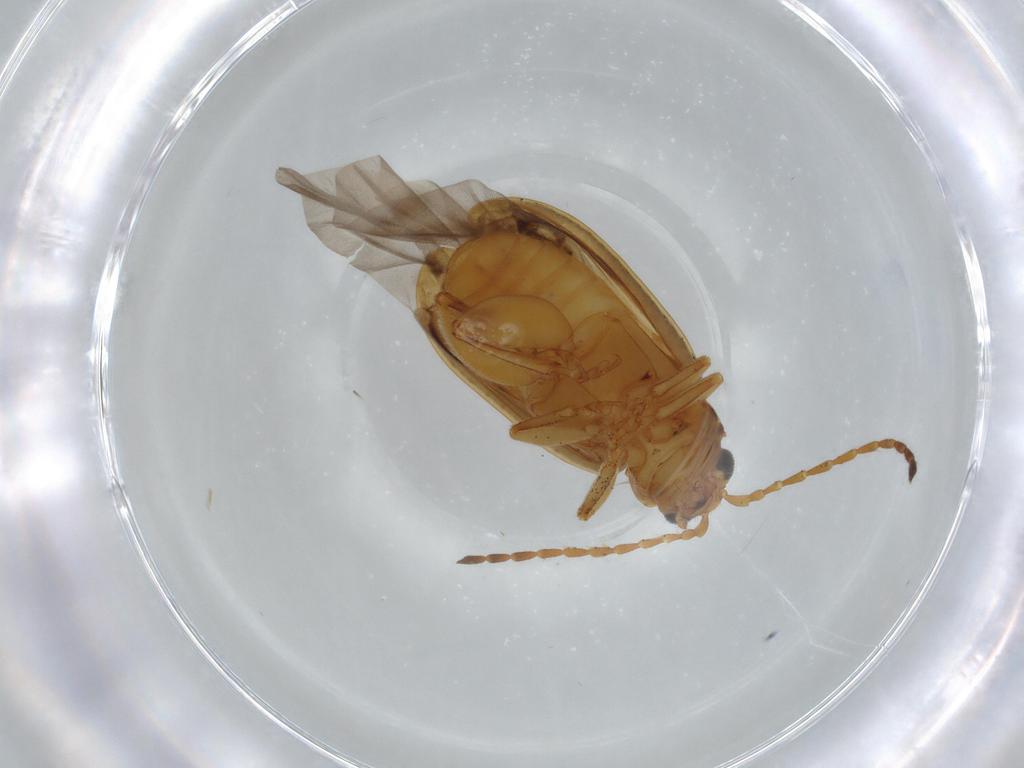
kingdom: Animalia
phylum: Arthropoda
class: Insecta
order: Coleoptera
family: Chrysomelidae
